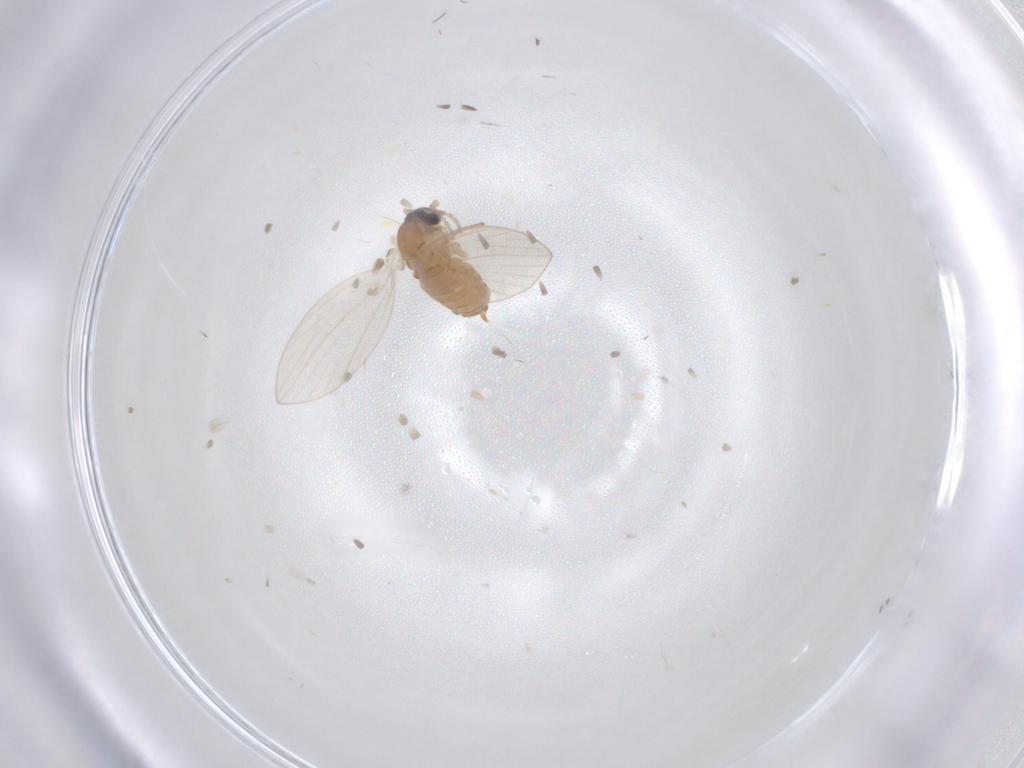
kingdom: Animalia
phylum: Arthropoda
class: Insecta
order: Diptera
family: Psychodidae
